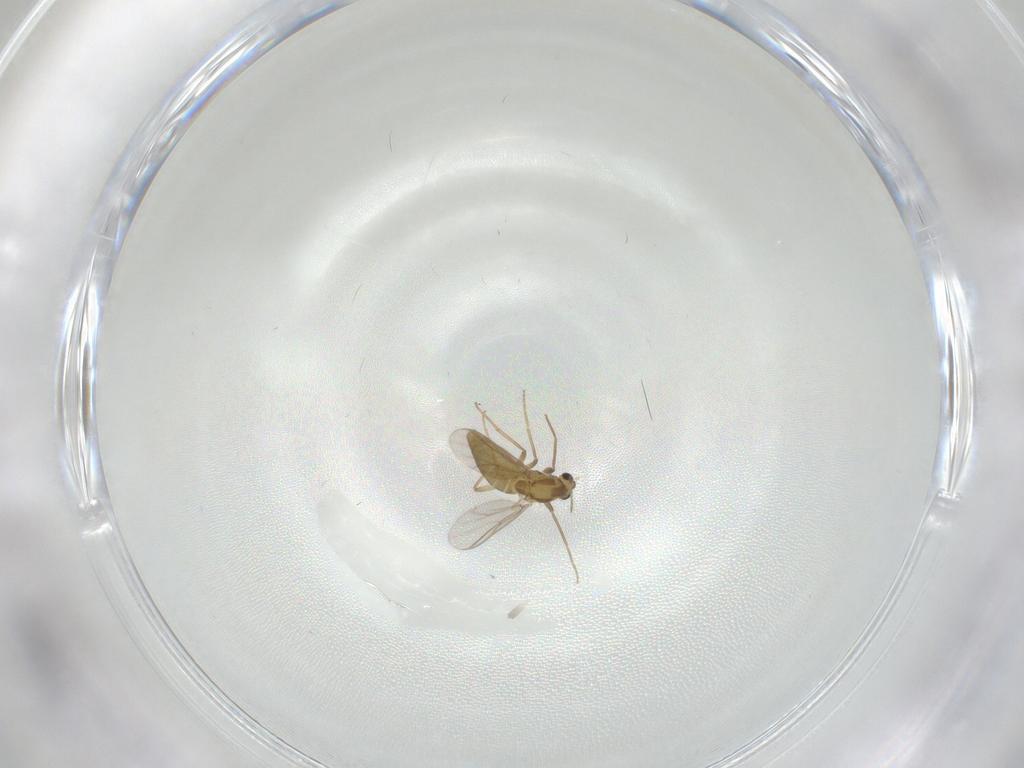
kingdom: Animalia
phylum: Arthropoda
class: Insecta
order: Diptera
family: Chironomidae
